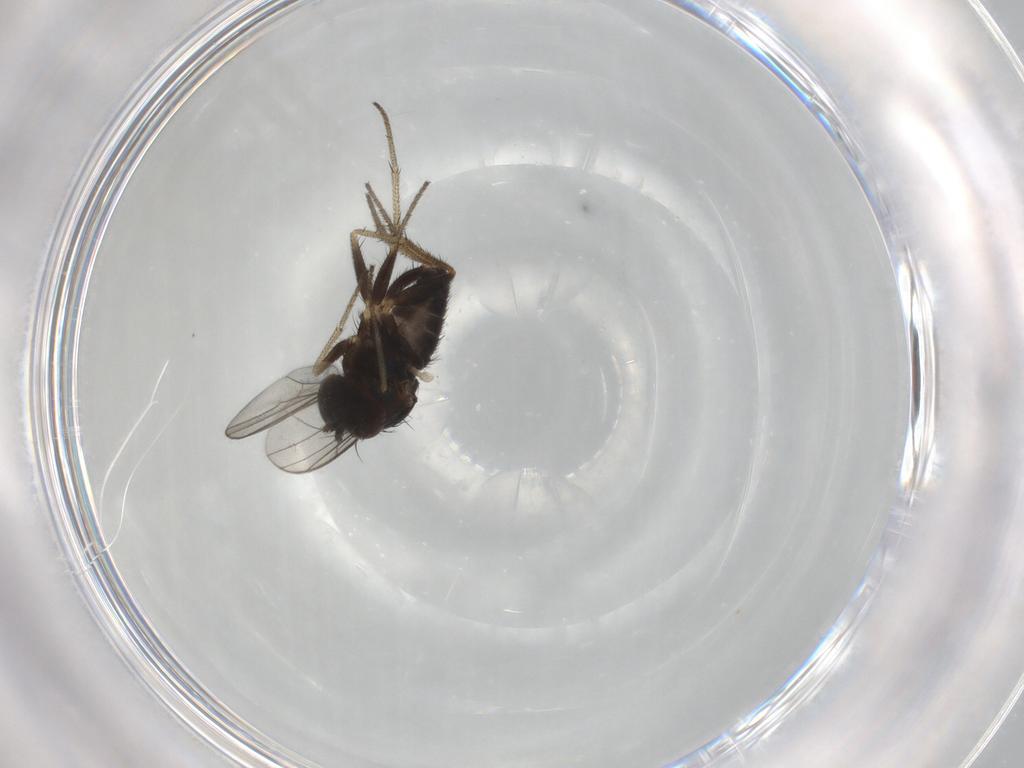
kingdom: Animalia
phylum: Arthropoda
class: Insecta
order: Diptera
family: Dolichopodidae
